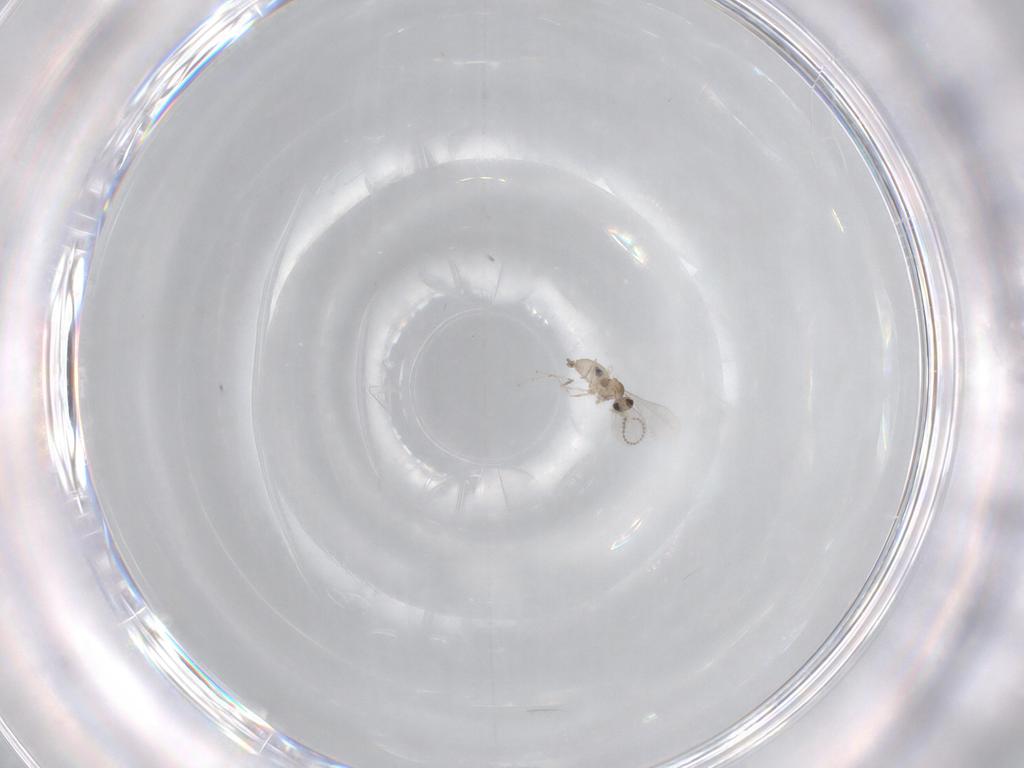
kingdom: Animalia
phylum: Arthropoda
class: Insecta
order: Diptera
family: Cecidomyiidae
